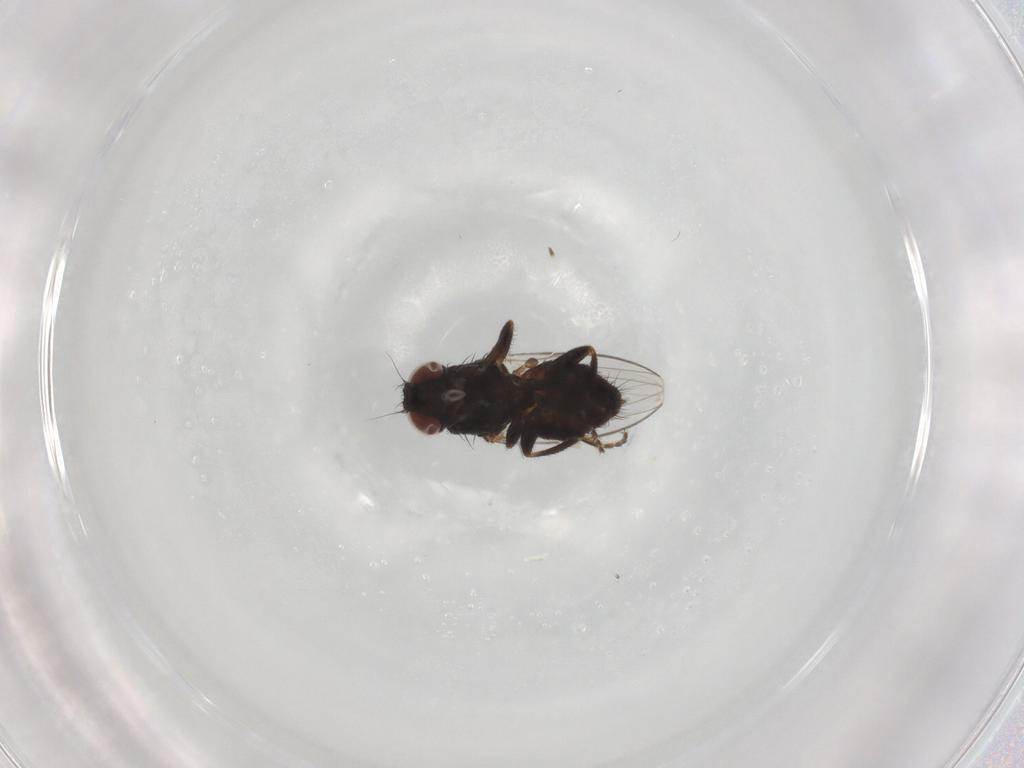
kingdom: Animalia
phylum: Arthropoda
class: Insecta
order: Diptera
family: Milichiidae
